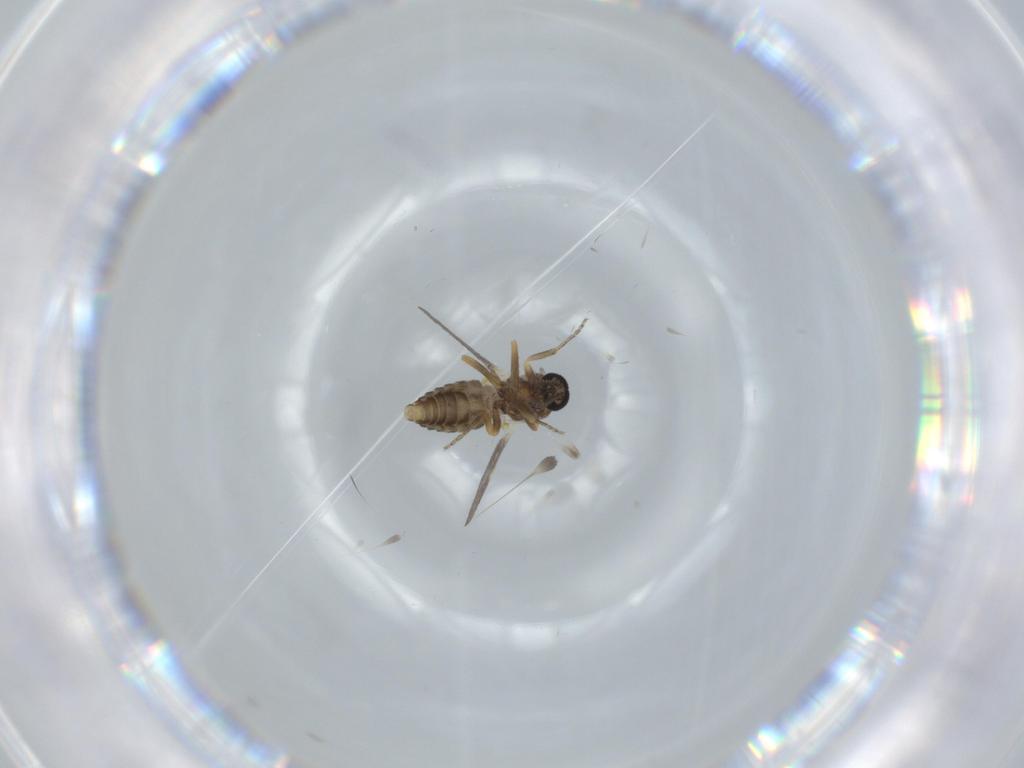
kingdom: Animalia
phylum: Arthropoda
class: Insecta
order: Diptera
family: Ceratopogonidae
